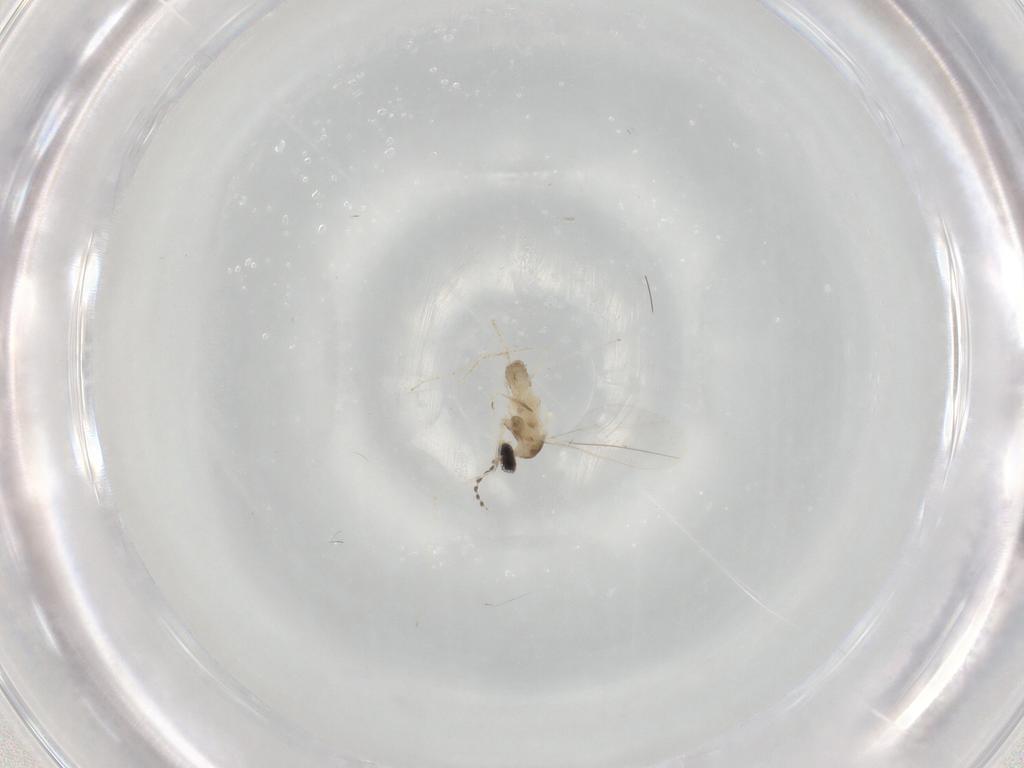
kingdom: Animalia
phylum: Arthropoda
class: Insecta
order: Diptera
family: Cecidomyiidae
